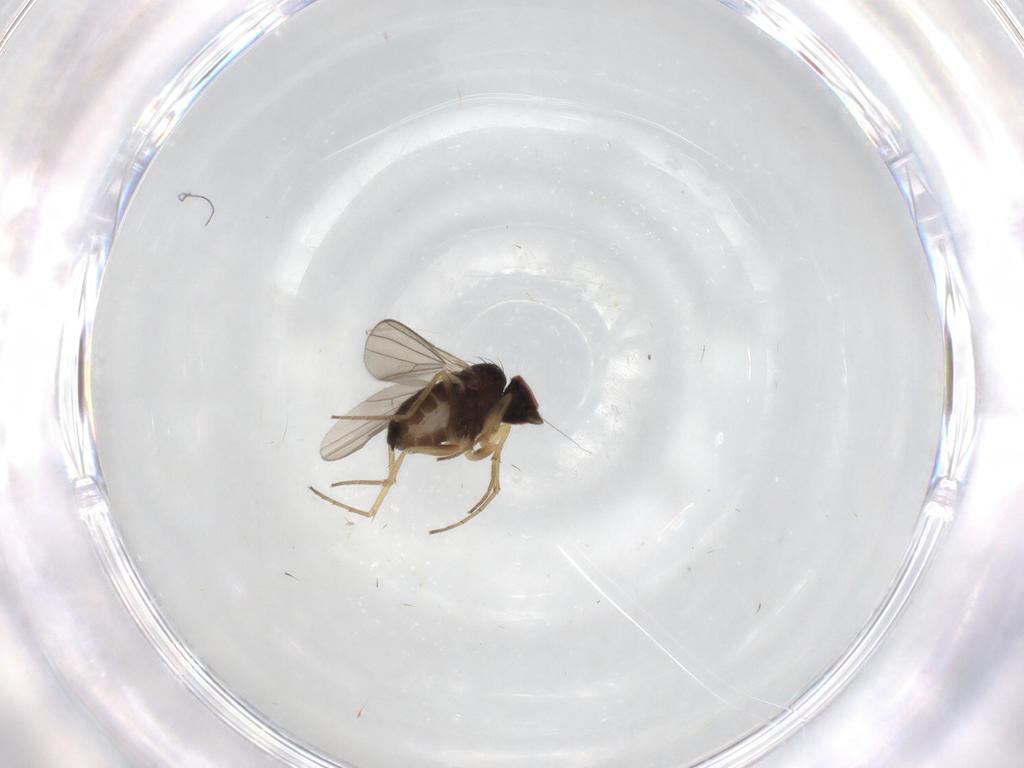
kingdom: Animalia
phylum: Arthropoda
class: Insecta
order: Diptera
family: Dolichopodidae
